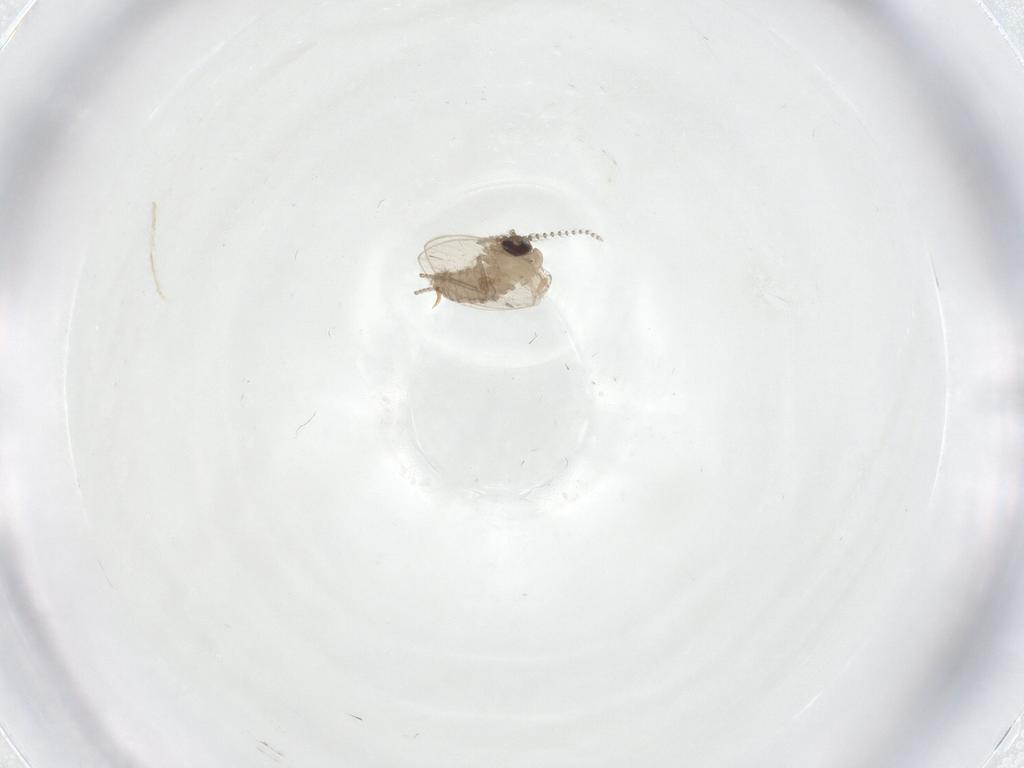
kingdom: Animalia
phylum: Arthropoda
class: Insecta
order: Diptera
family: Psychodidae
